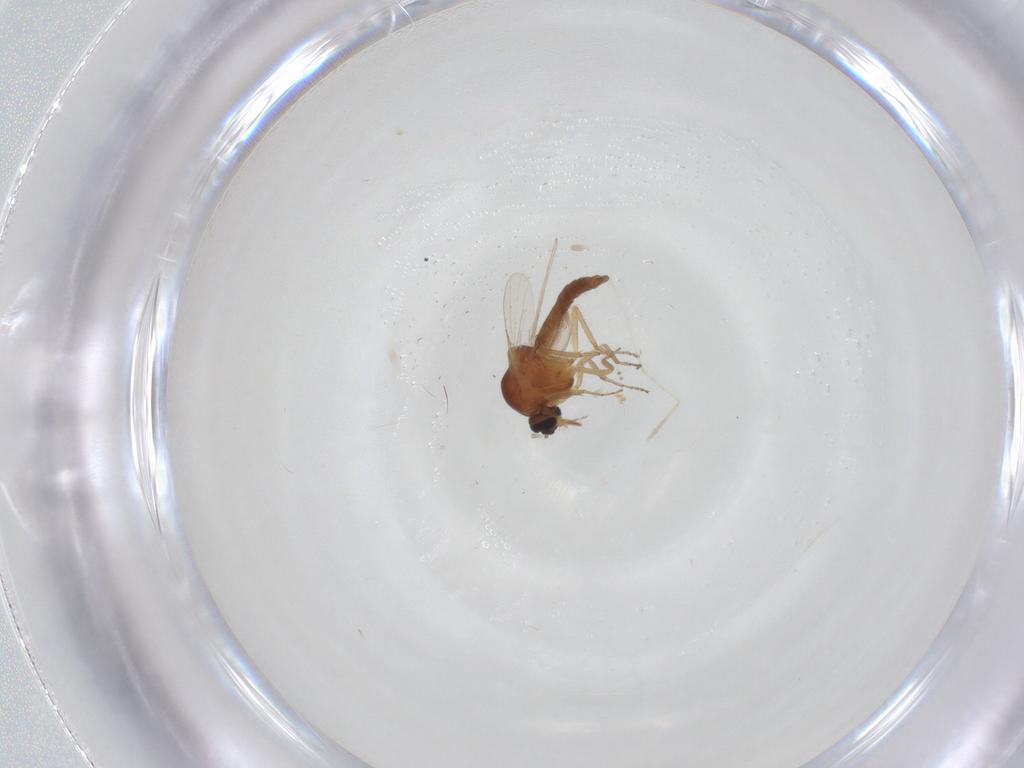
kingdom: Animalia
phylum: Arthropoda
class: Insecta
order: Diptera
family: Ceratopogonidae
